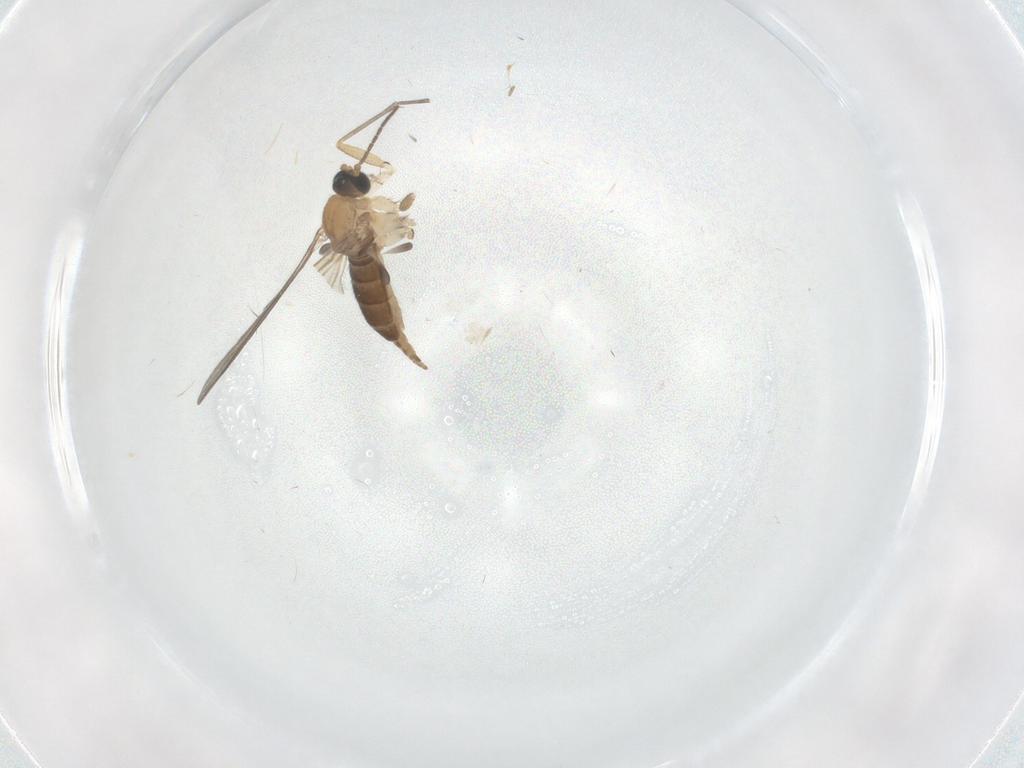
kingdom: Animalia
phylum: Arthropoda
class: Insecta
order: Diptera
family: Sciaridae
